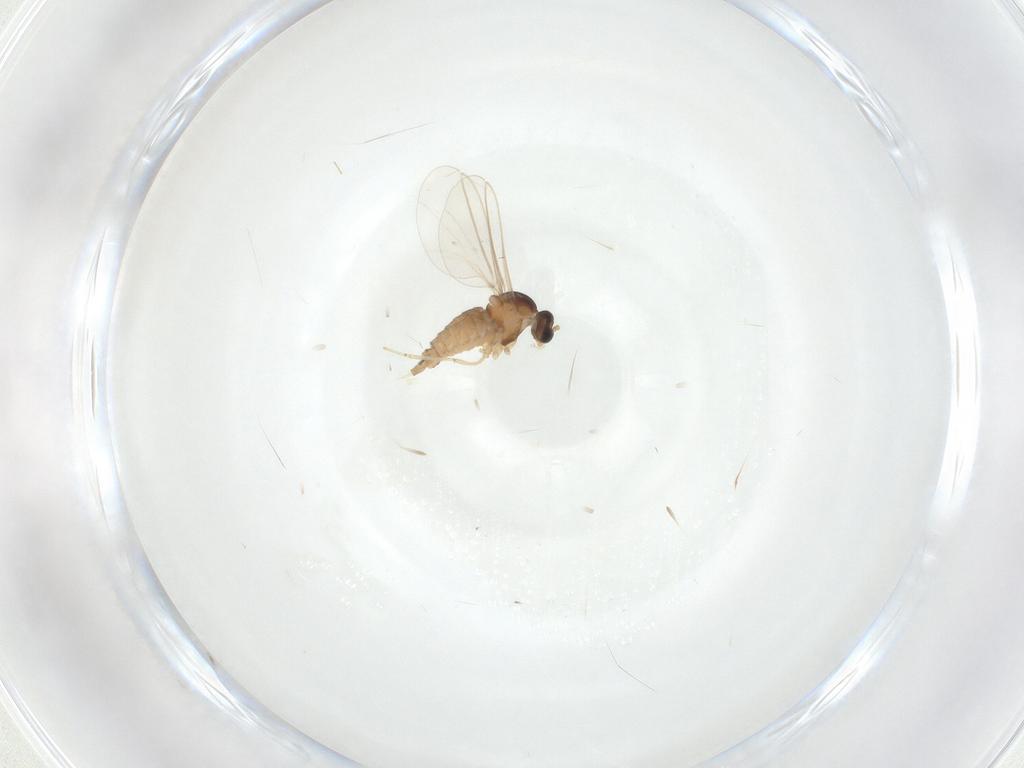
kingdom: Animalia
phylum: Arthropoda
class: Insecta
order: Diptera
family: Cecidomyiidae
